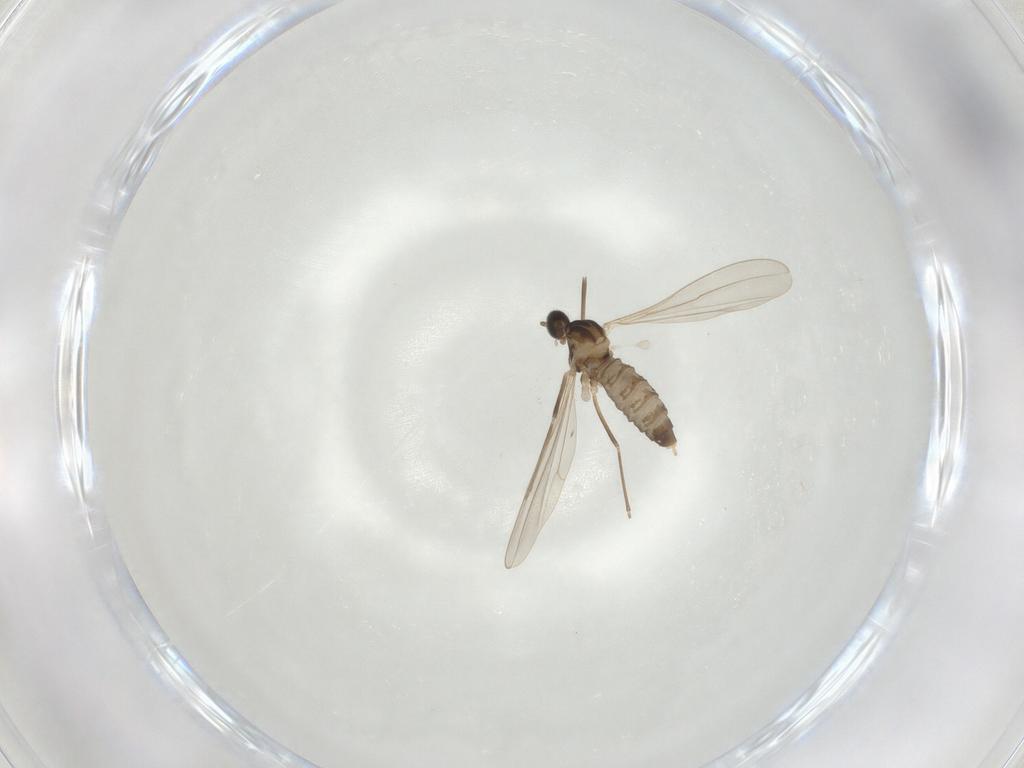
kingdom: Animalia
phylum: Arthropoda
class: Insecta
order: Diptera
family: Cecidomyiidae
